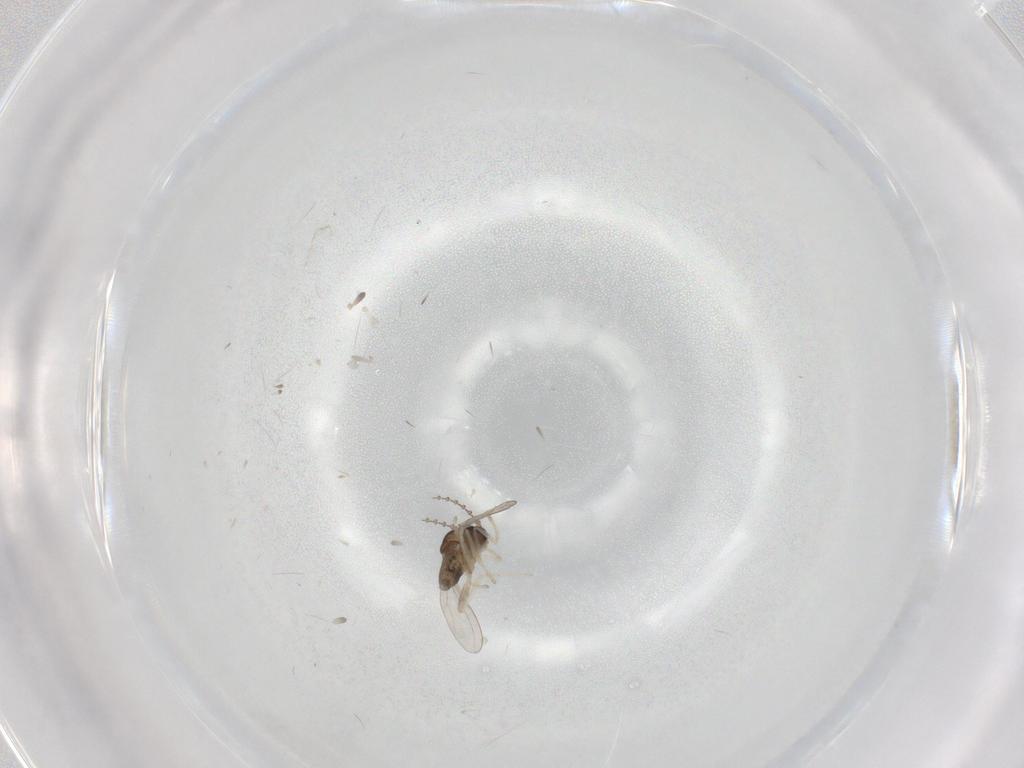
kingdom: Animalia
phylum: Arthropoda
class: Insecta
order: Diptera
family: Cecidomyiidae
